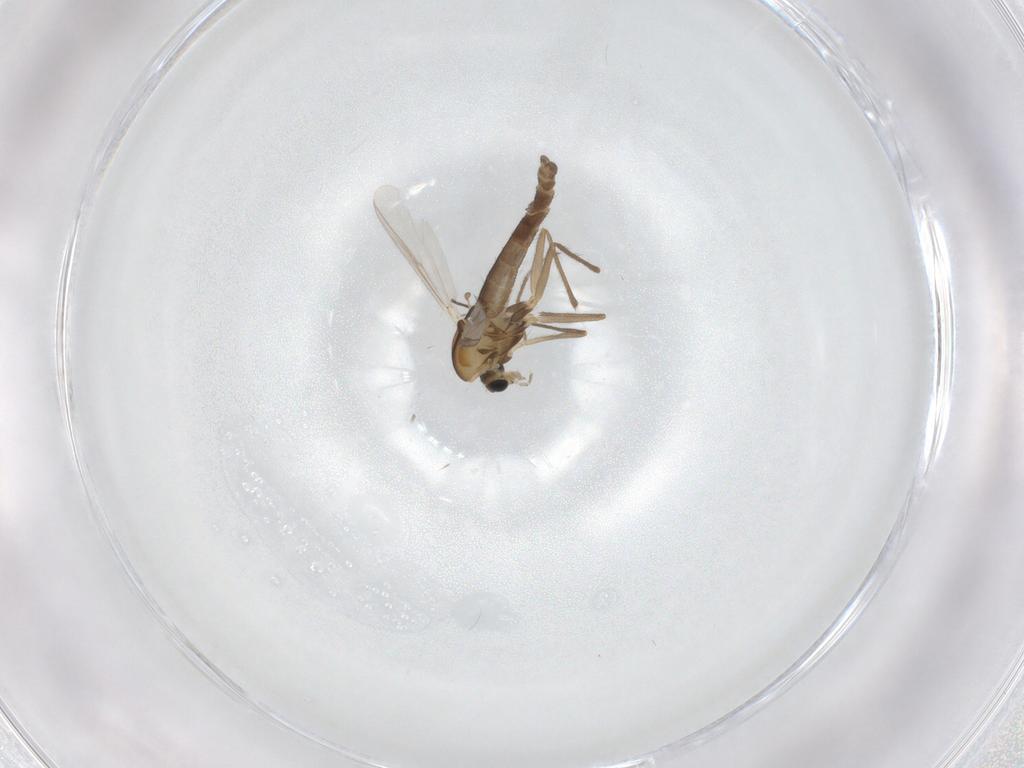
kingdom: Animalia
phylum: Arthropoda
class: Insecta
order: Diptera
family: Chironomidae
